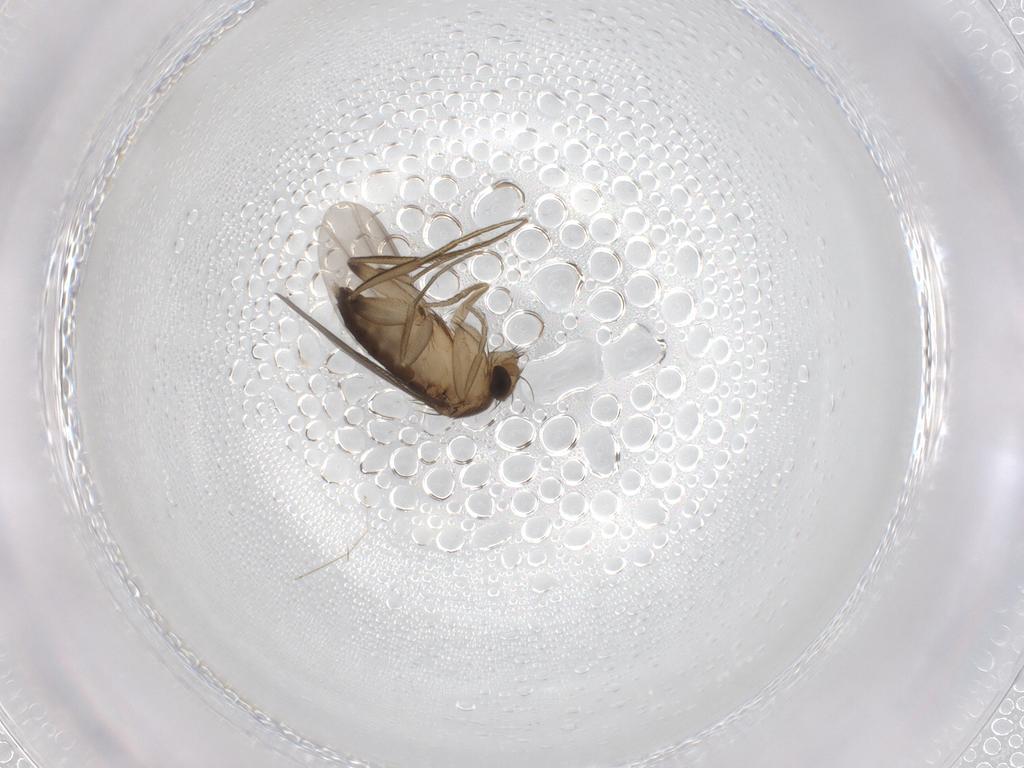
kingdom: Animalia
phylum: Arthropoda
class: Insecta
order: Diptera
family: Phoridae
